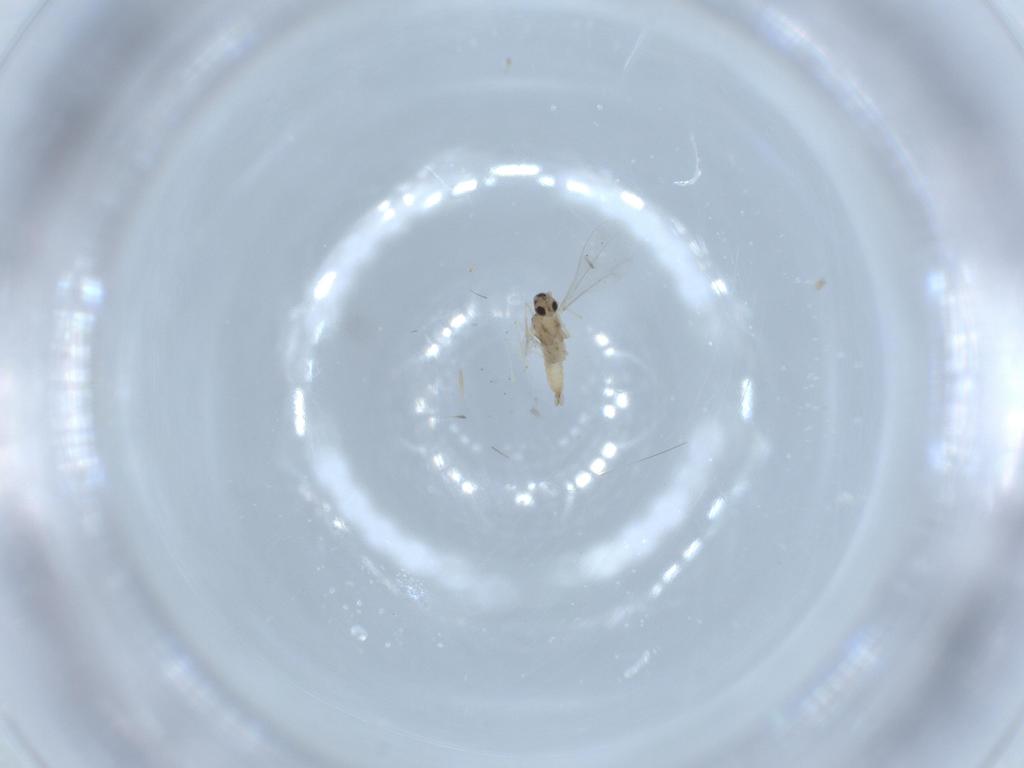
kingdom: Animalia
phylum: Arthropoda
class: Insecta
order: Diptera
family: Cecidomyiidae
